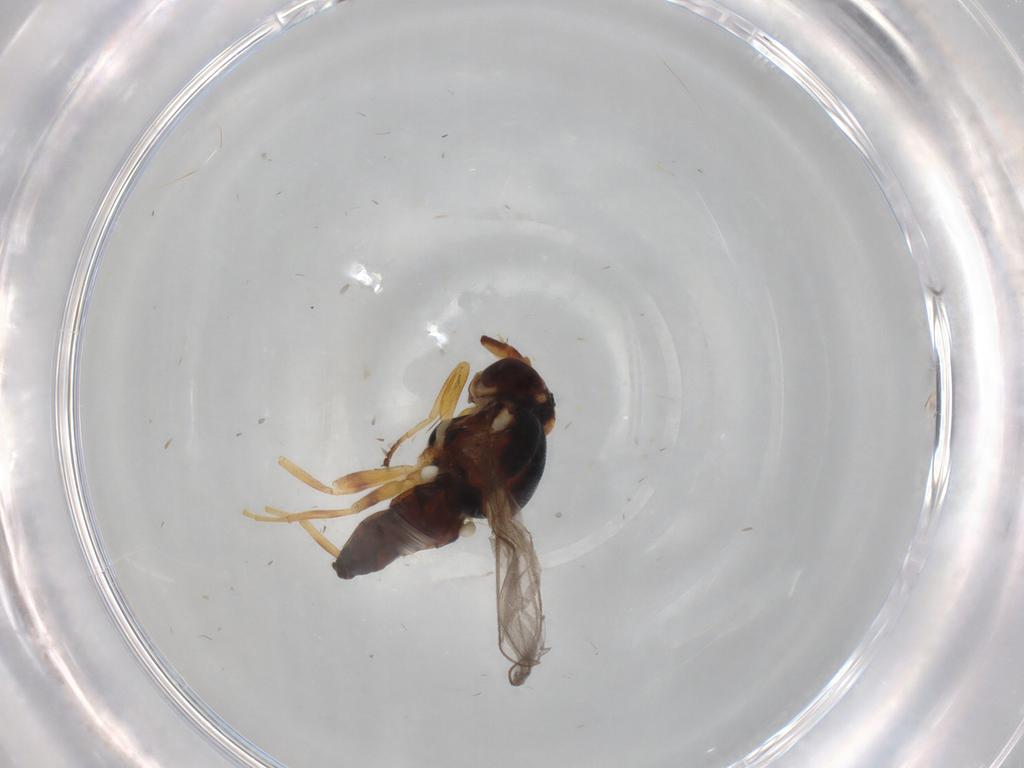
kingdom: Animalia
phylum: Arthropoda
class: Insecta
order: Diptera
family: Chloropidae
